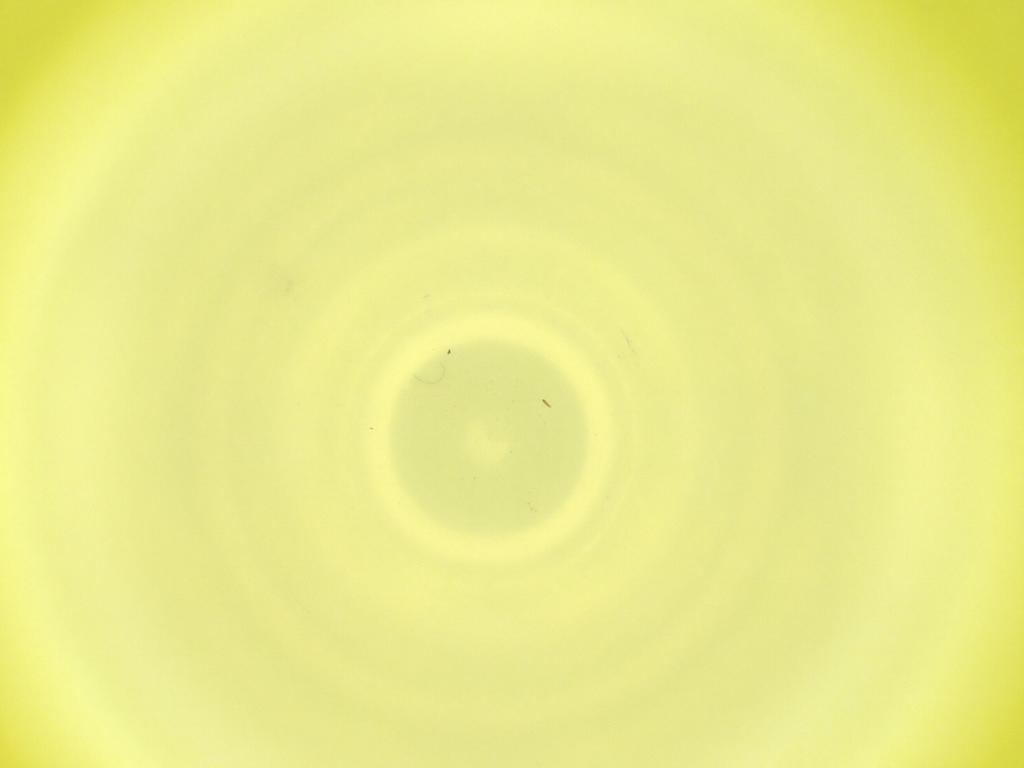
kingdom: Animalia
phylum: Arthropoda
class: Insecta
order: Diptera
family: Cecidomyiidae
